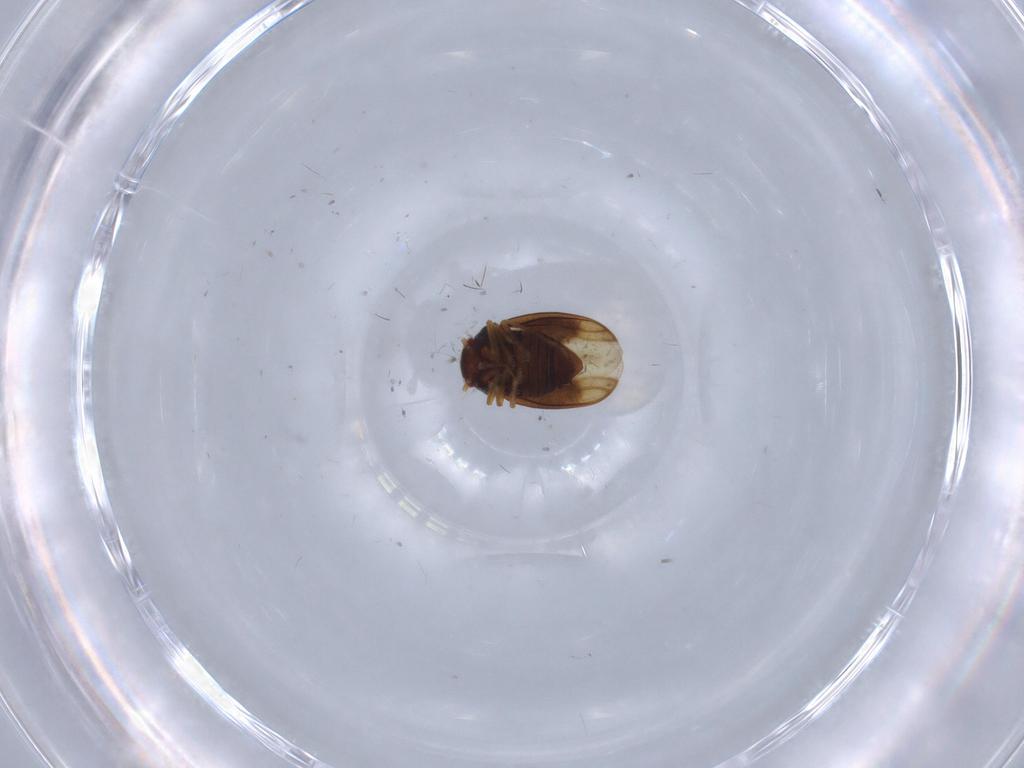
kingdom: Animalia
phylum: Arthropoda
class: Insecta
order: Hemiptera
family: Schizopteridae
